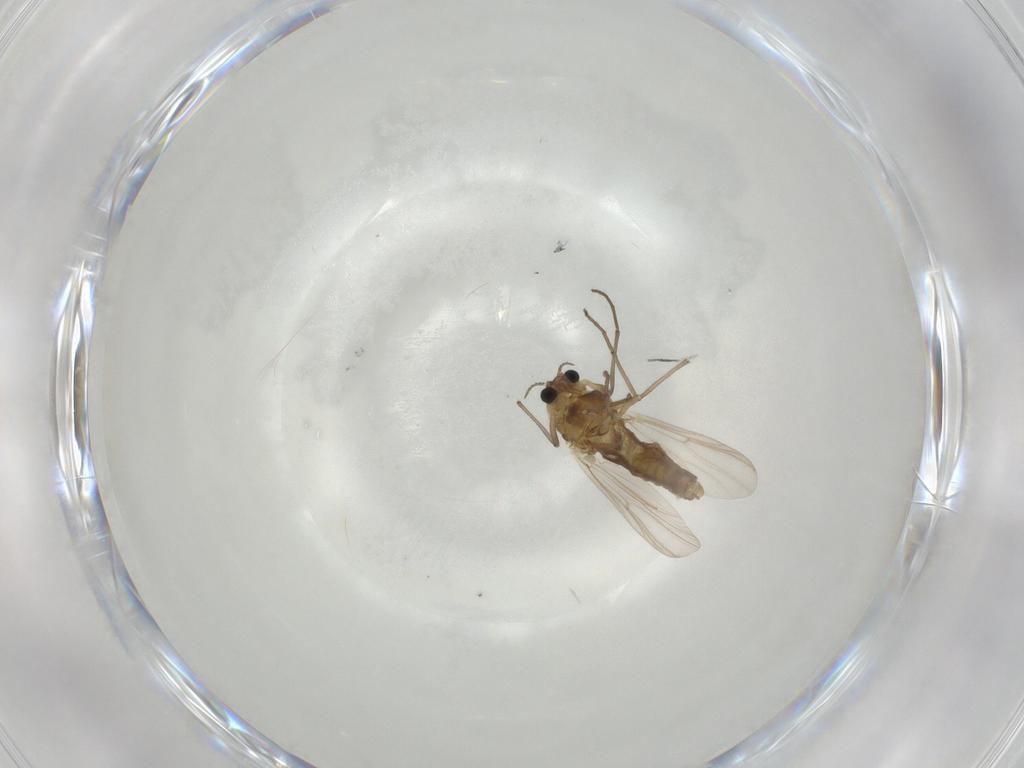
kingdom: Animalia
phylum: Arthropoda
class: Insecta
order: Diptera
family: Chironomidae
